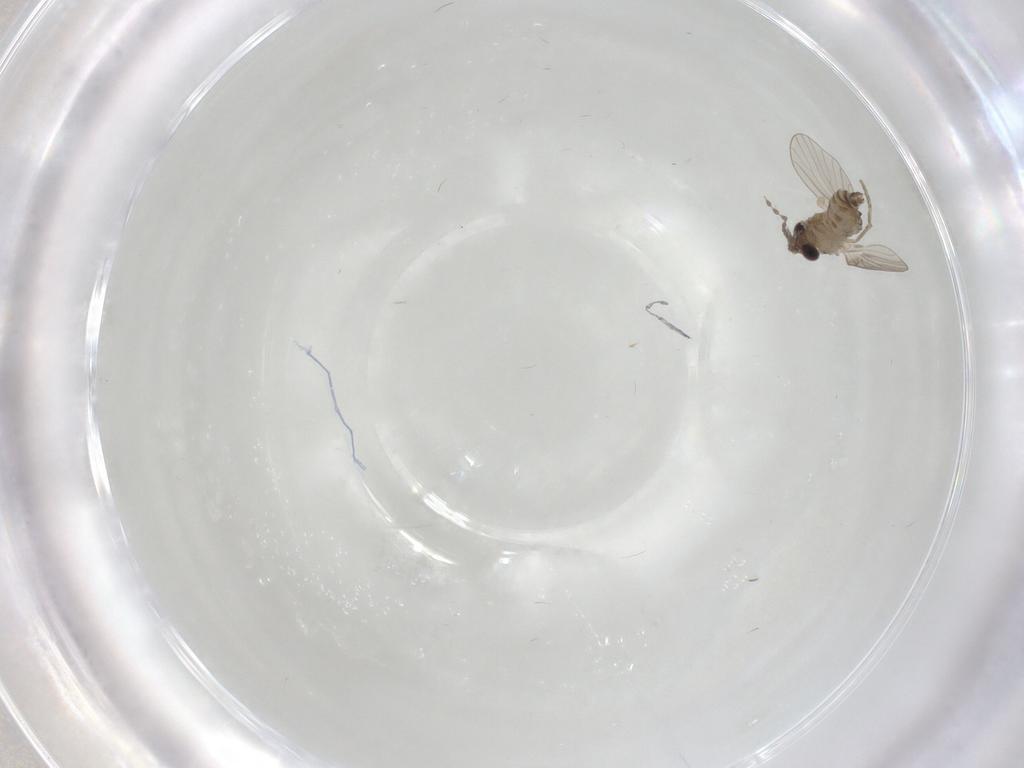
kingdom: Animalia
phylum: Arthropoda
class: Insecta
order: Diptera
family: Psychodidae
